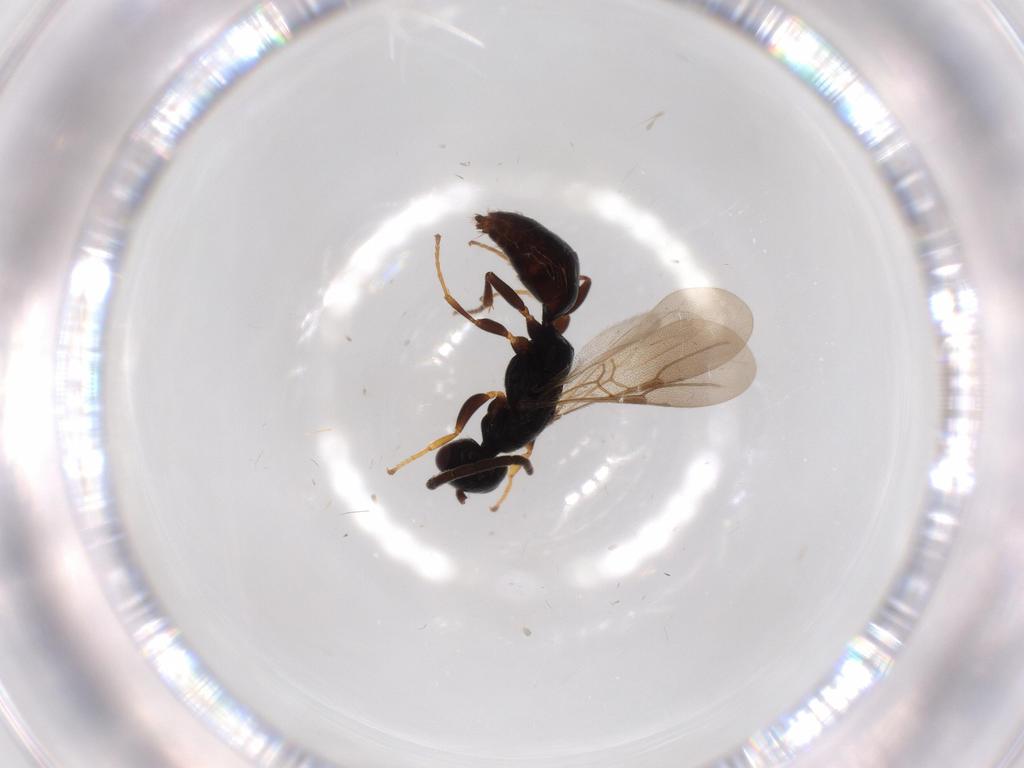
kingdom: Animalia
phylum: Arthropoda
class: Insecta
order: Hymenoptera
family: Bethylidae
